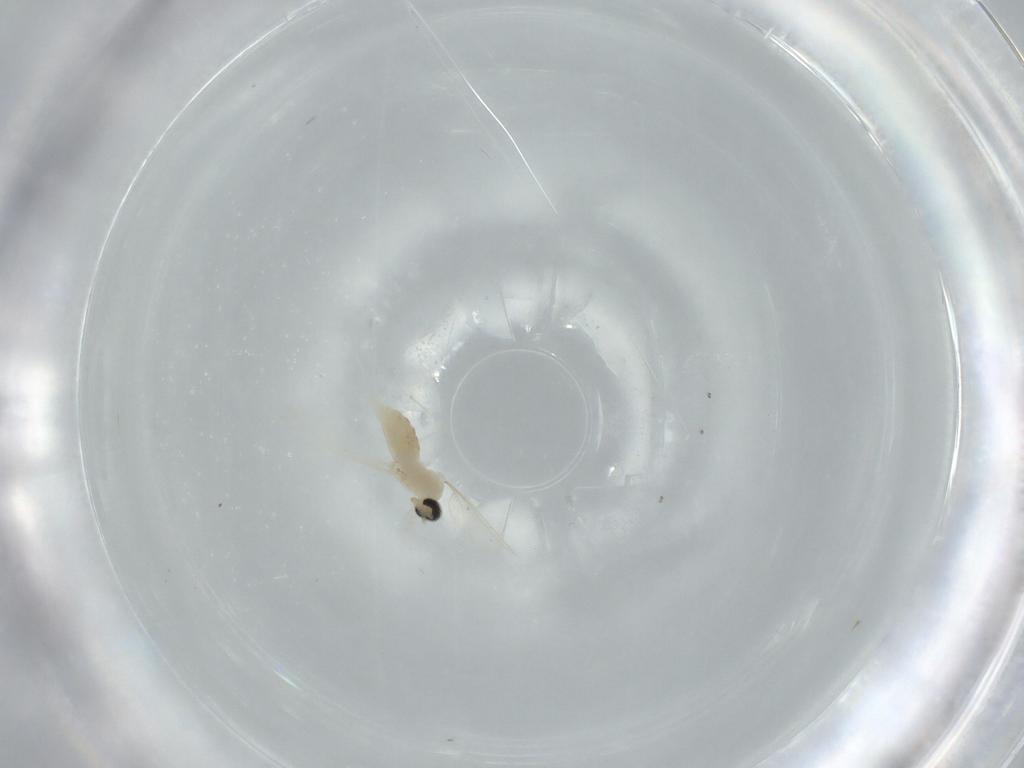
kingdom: Animalia
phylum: Arthropoda
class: Insecta
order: Diptera
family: Cecidomyiidae
